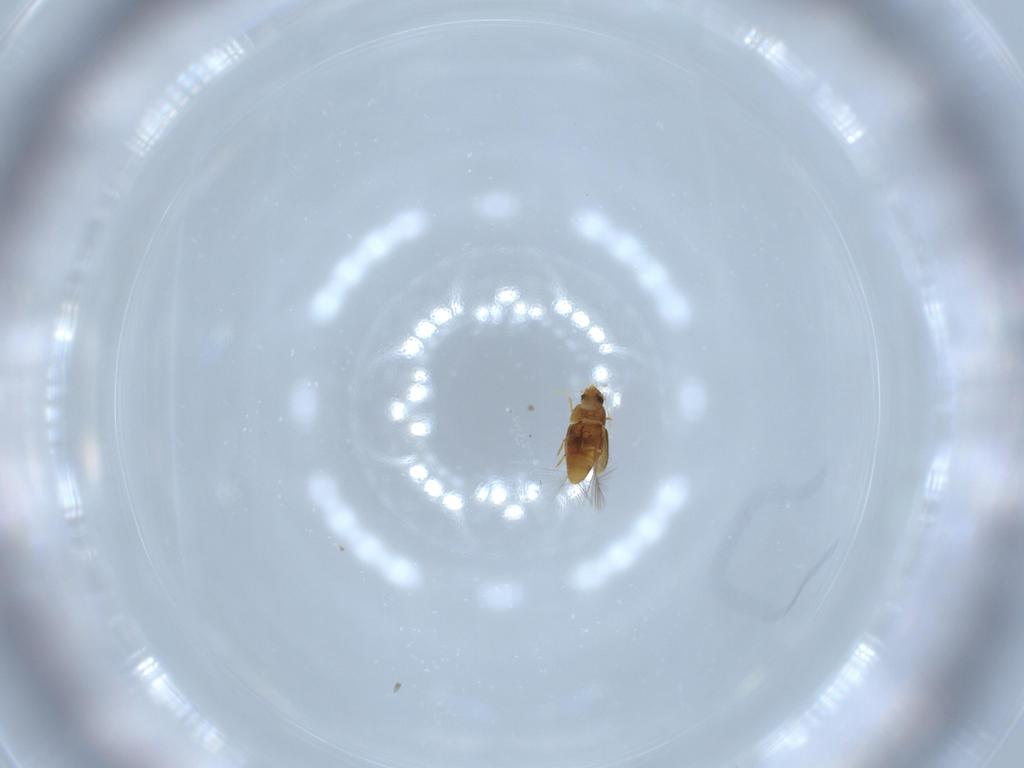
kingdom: Animalia
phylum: Arthropoda
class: Insecta
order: Coleoptera
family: Ptiliidae
